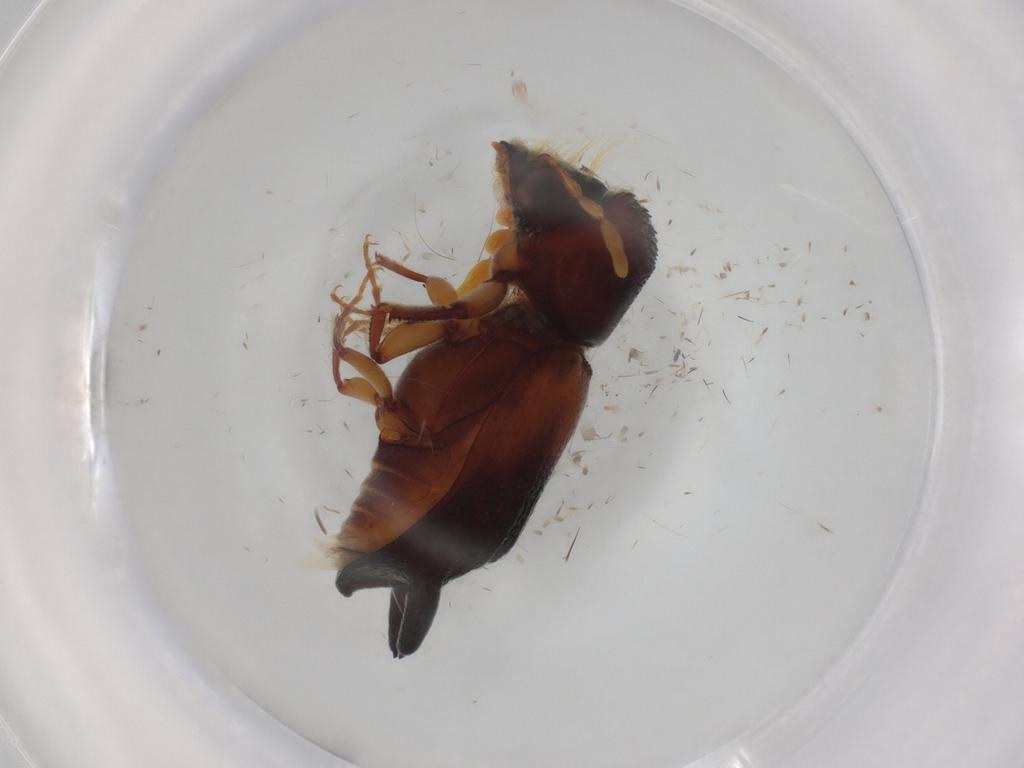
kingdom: Animalia
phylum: Arthropoda
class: Insecta
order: Coleoptera
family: Bostrichidae
